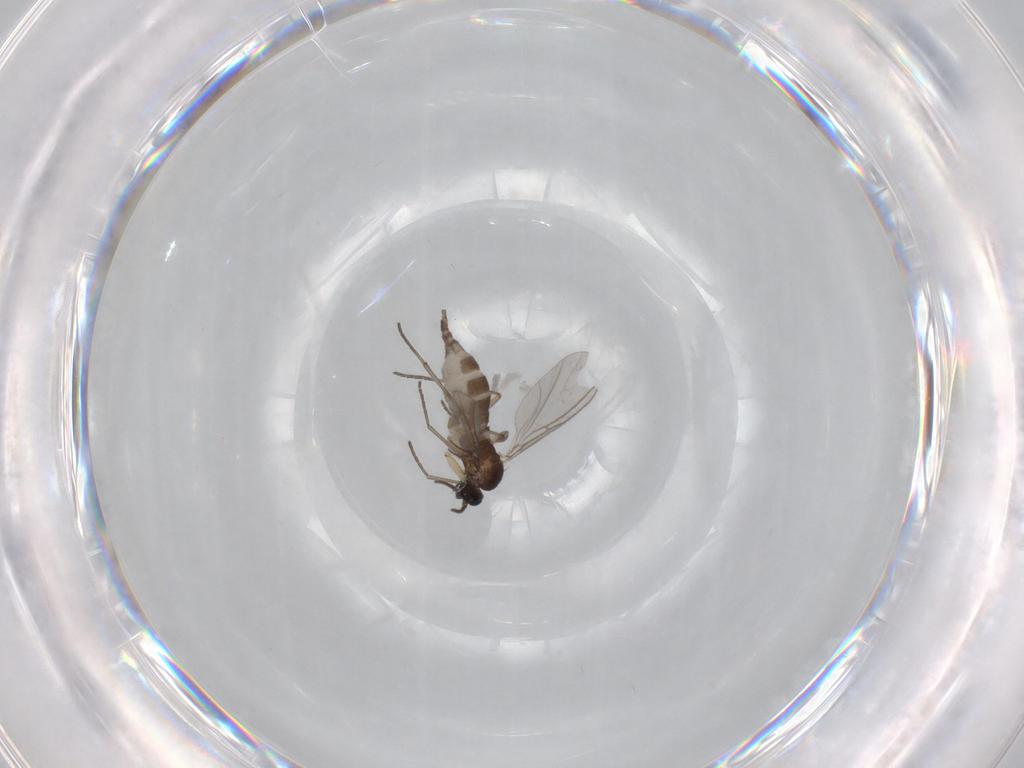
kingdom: Animalia
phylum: Arthropoda
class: Insecta
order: Diptera
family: Sciaridae
